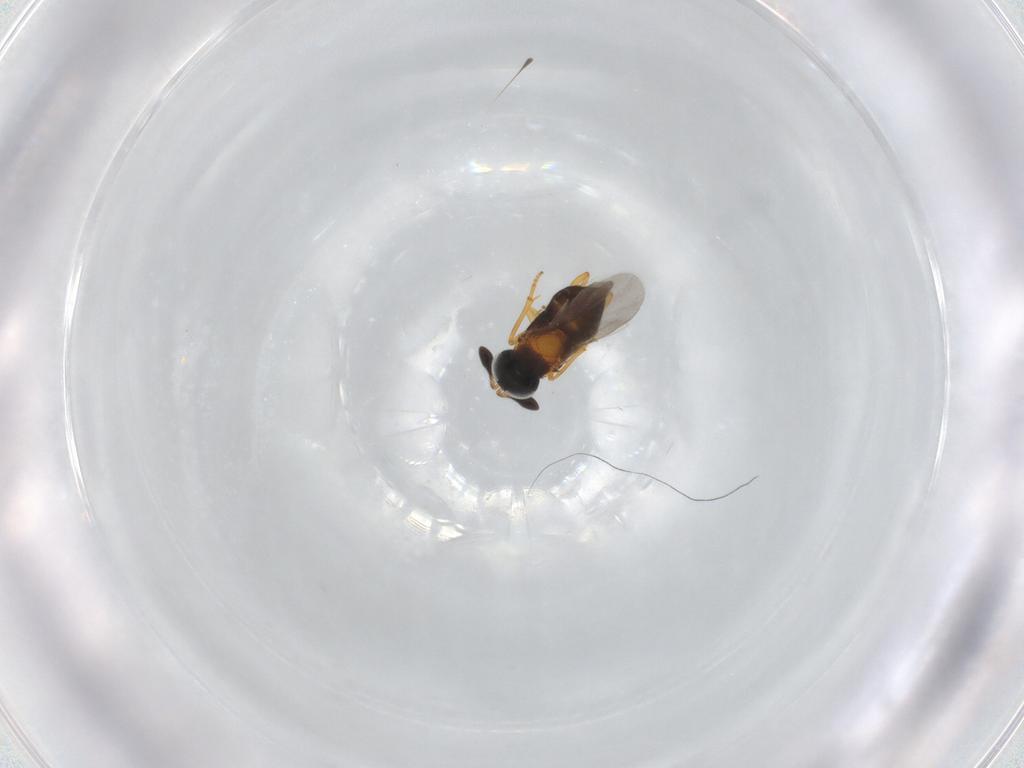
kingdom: Animalia
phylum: Arthropoda
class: Insecta
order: Hymenoptera
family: Encyrtidae
